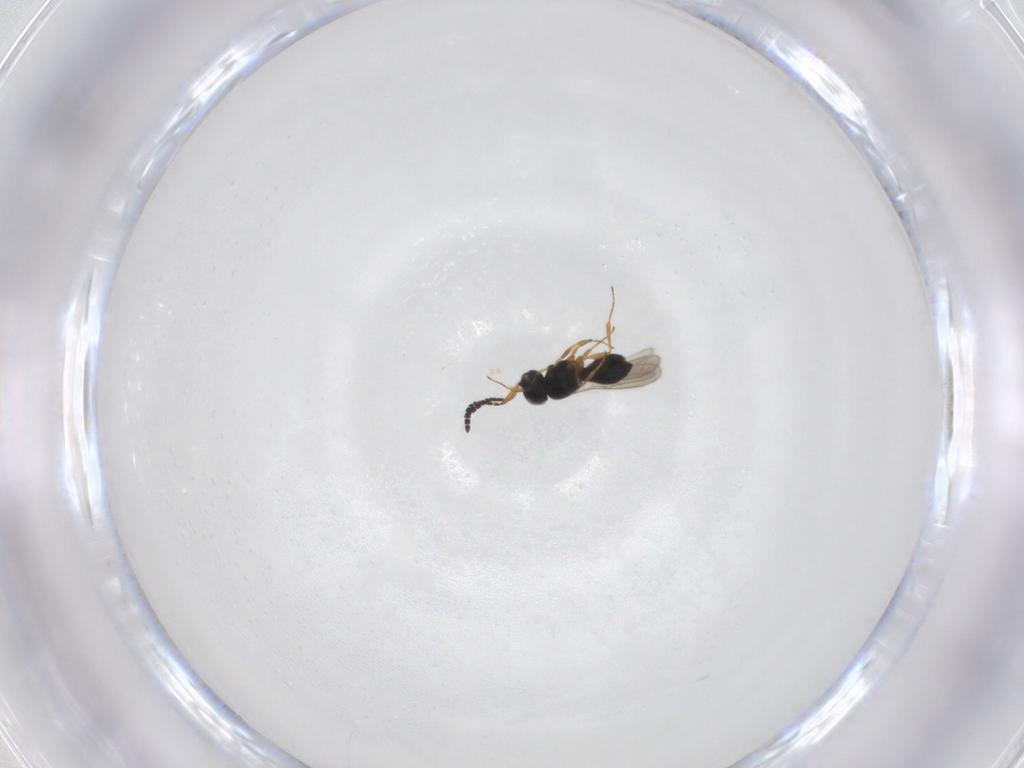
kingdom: Animalia
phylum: Arthropoda
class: Insecta
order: Hymenoptera
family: Scelionidae
